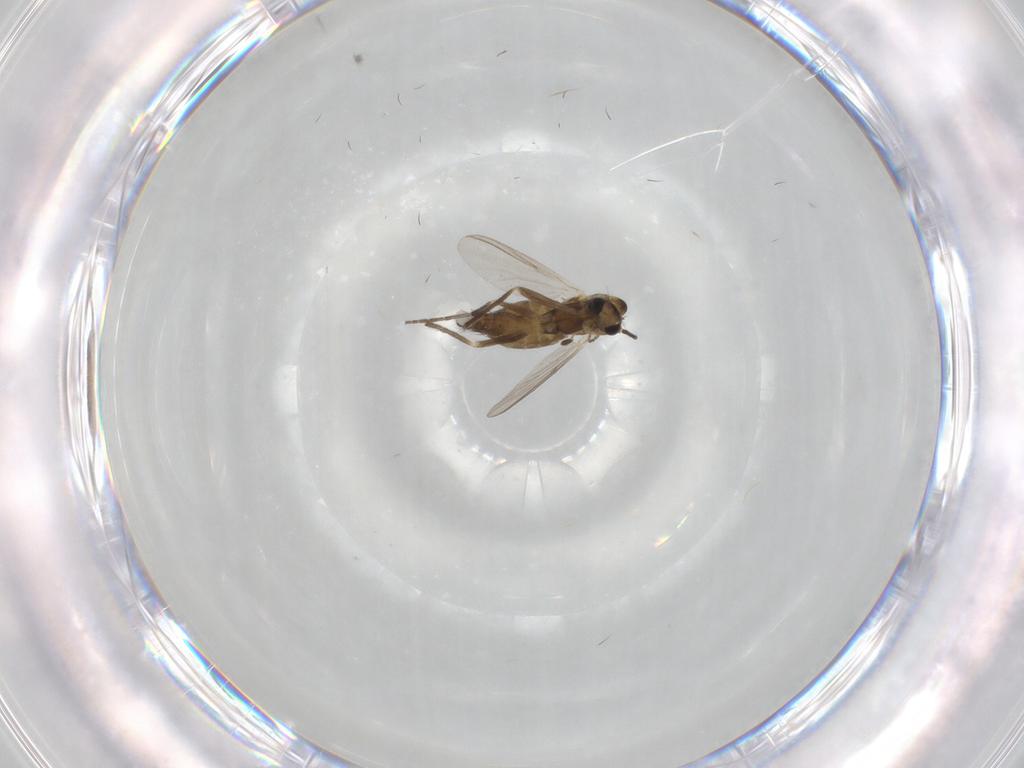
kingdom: Animalia
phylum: Arthropoda
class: Insecta
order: Diptera
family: Chironomidae
